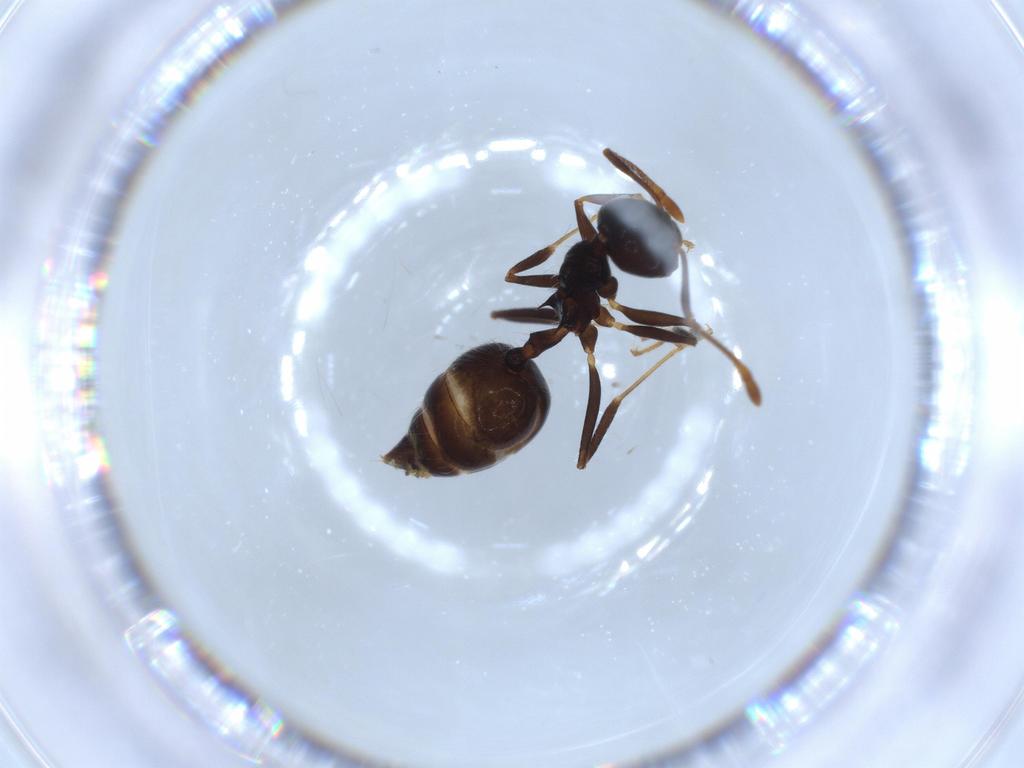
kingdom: Animalia
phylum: Arthropoda
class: Insecta
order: Hymenoptera
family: Formicidae
